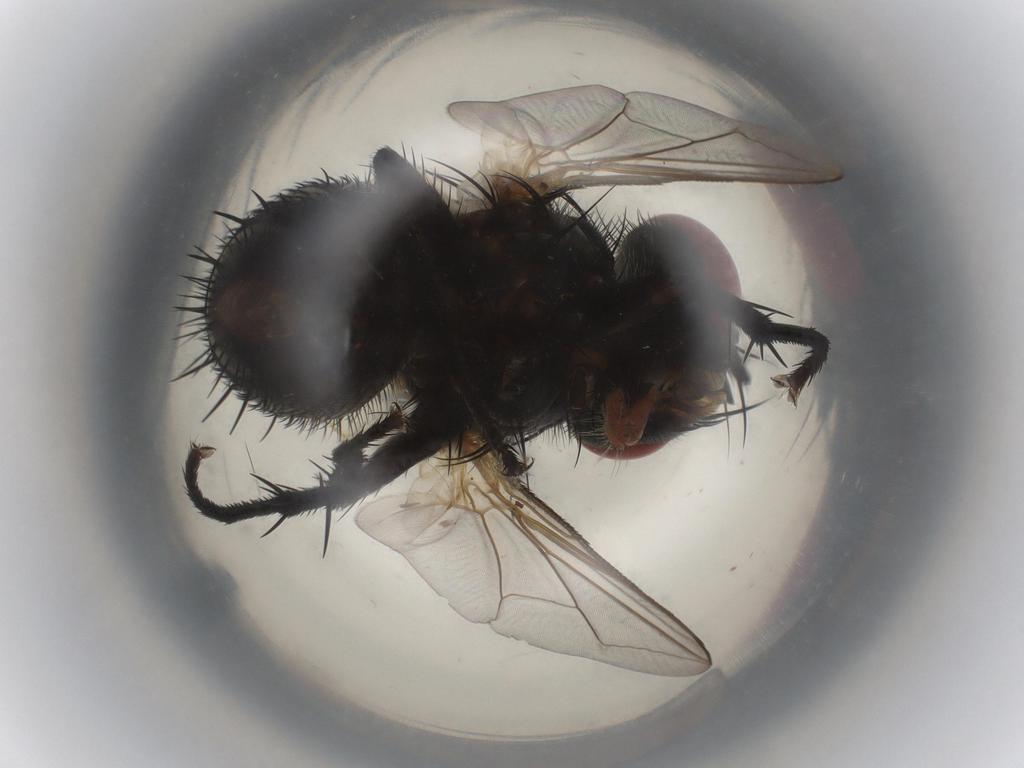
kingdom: Animalia
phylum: Arthropoda
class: Insecta
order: Diptera
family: Tachinidae
